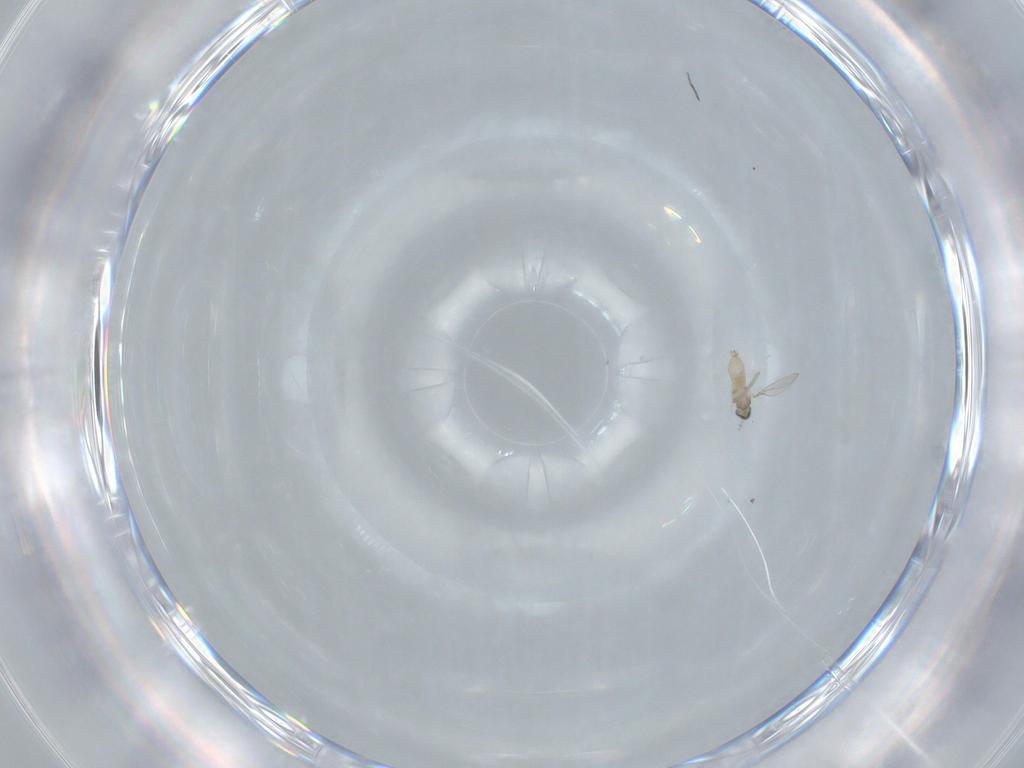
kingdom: Animalia
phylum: Arthropoda
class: Insecta
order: Diptera
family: Cecidomyiidae
